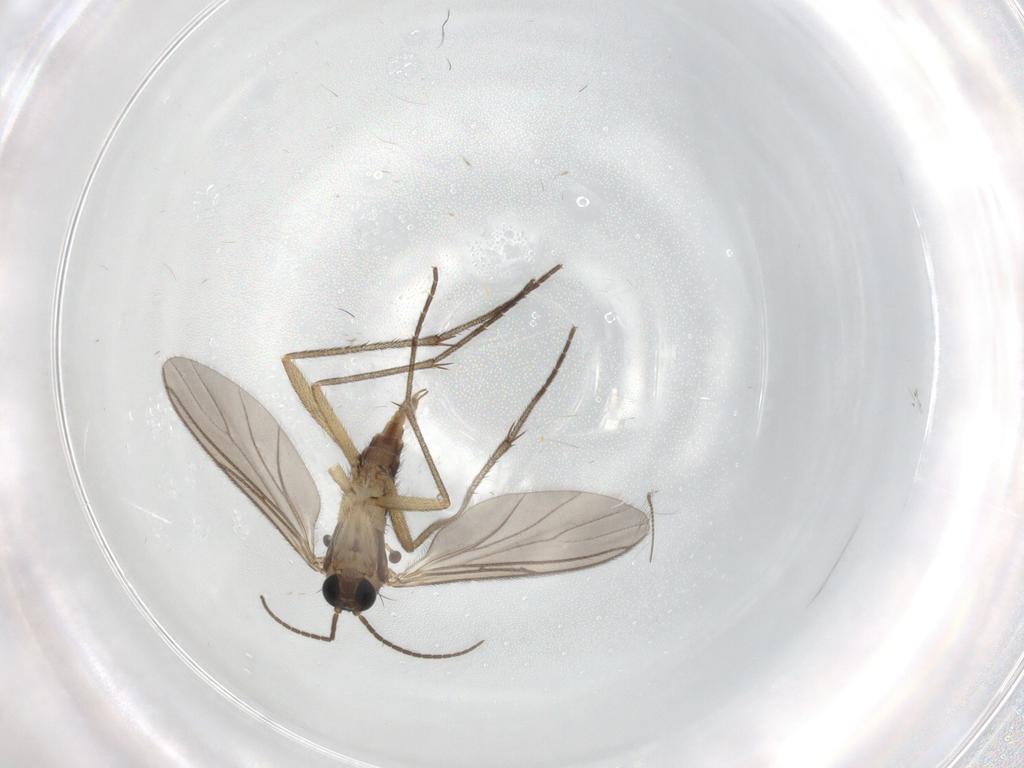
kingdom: Animalia
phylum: Arthropoda
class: Insecta
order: Diptera
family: Sciaridae
